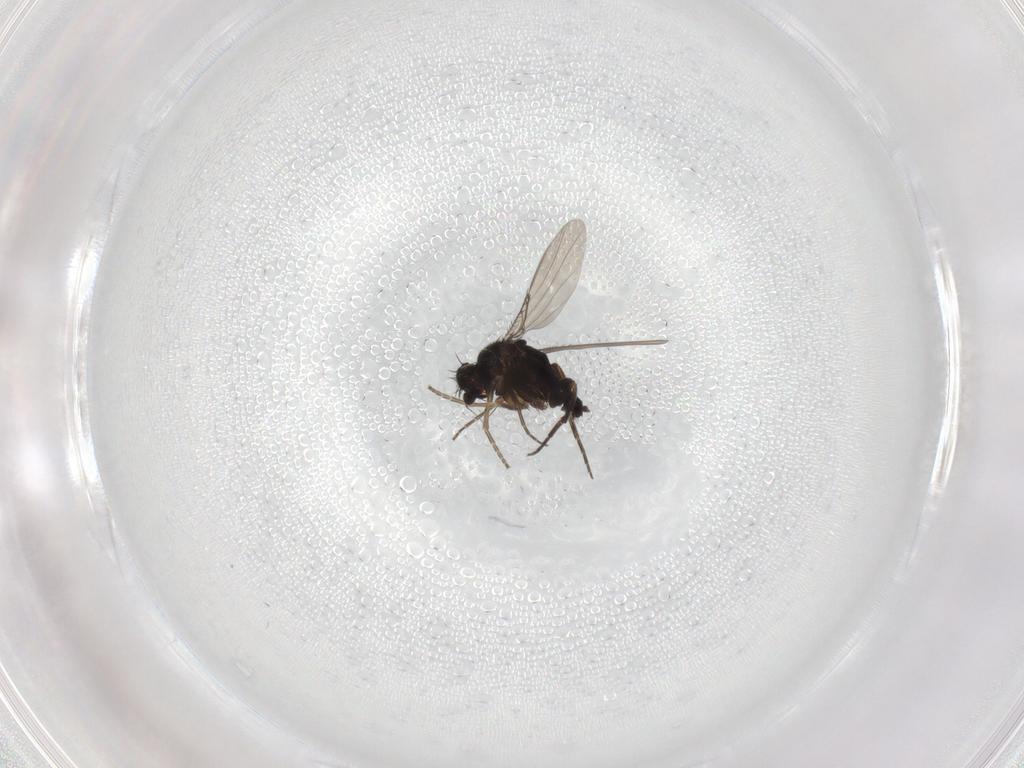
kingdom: Animalia
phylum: Arthropoda
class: Insecta
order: Diptera
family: Phoridae
